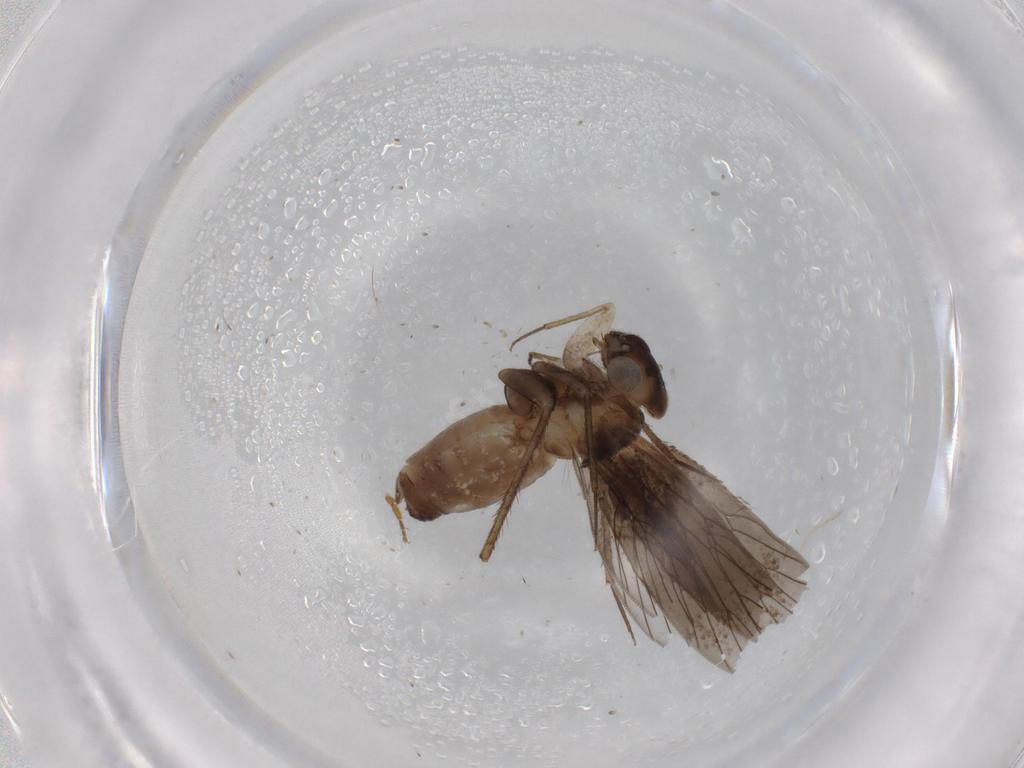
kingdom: Animalia
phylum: Arthropoda
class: Insecta
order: Psocodea
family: Lepidopsocidae
